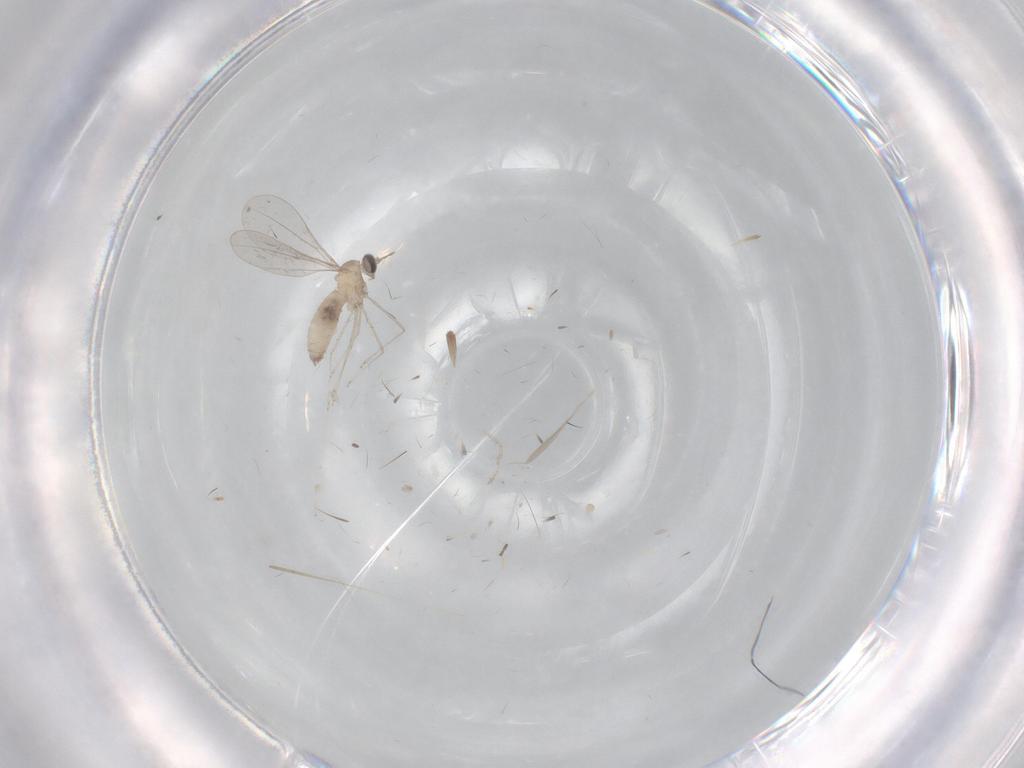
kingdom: Animalia
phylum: Arthropoda
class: Insecta
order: Diptera
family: Cecidomyiidae
